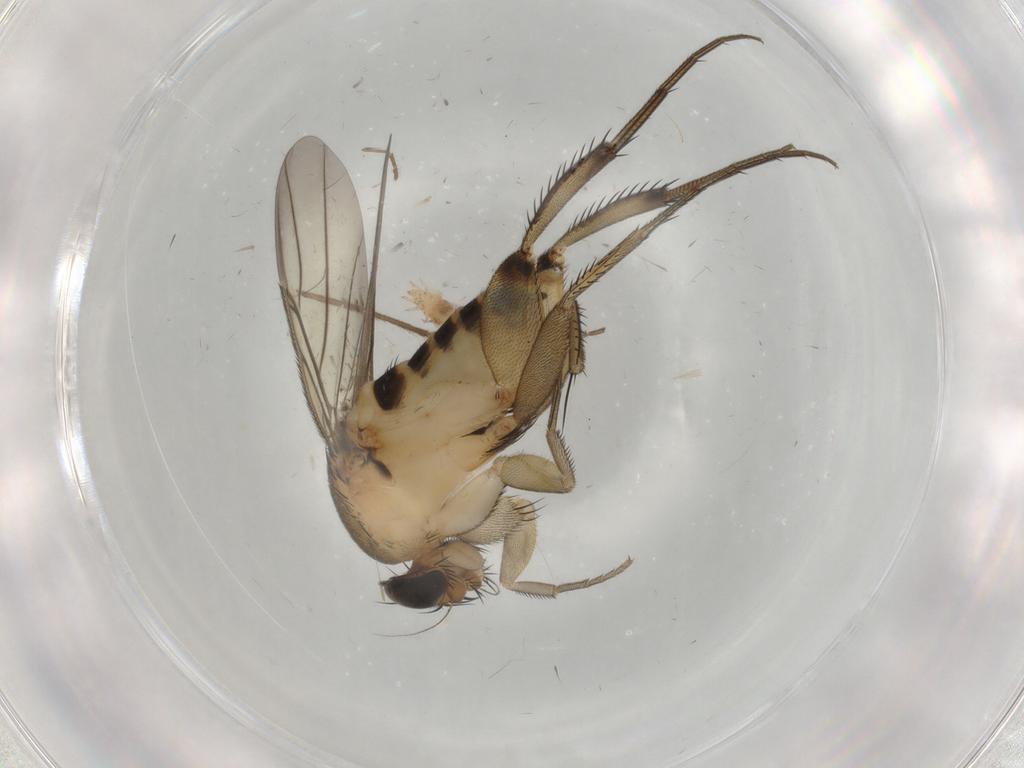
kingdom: Animalia
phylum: Arthropoda
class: Insecta
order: Diptera
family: Phoridae
